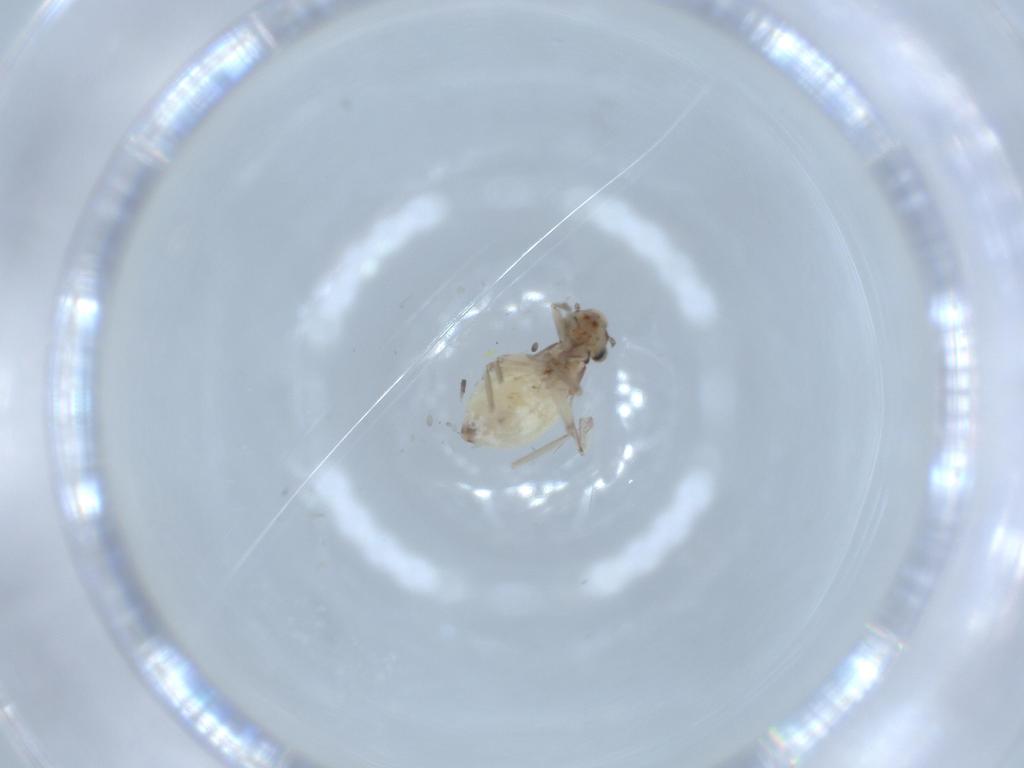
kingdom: Animalia
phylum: Arthropoda
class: Insecta
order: Psocodea
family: Lepidopsocidae
